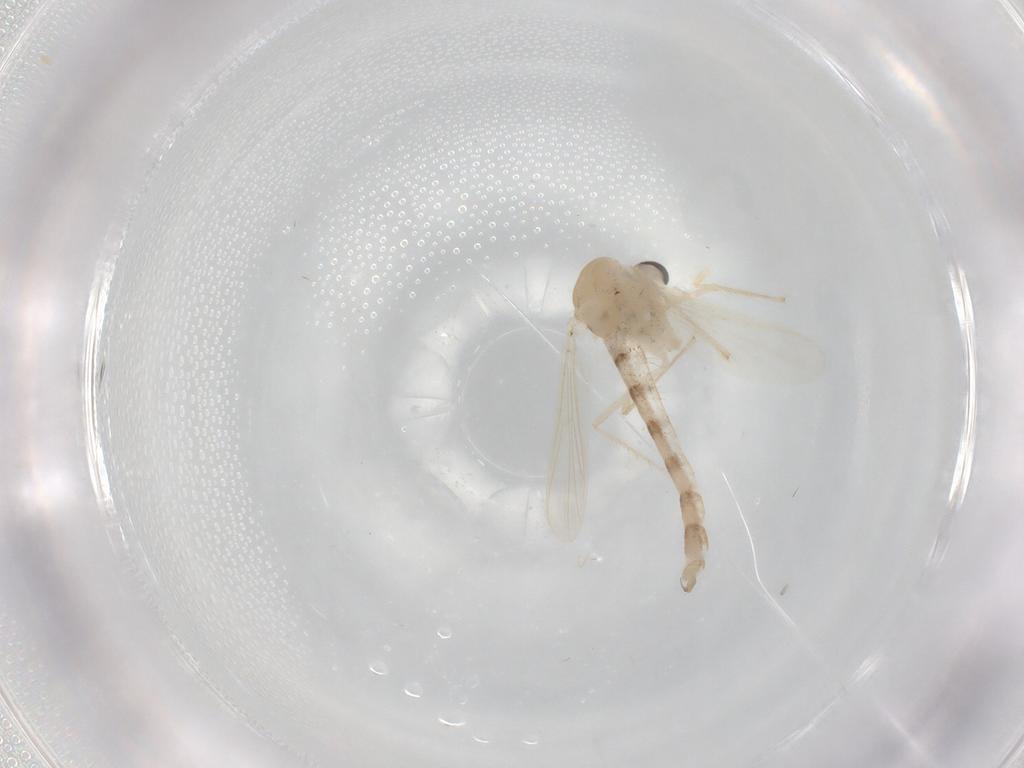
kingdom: Animalia
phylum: Arthropoda
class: Insecta
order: Diptera
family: Chironomidae
